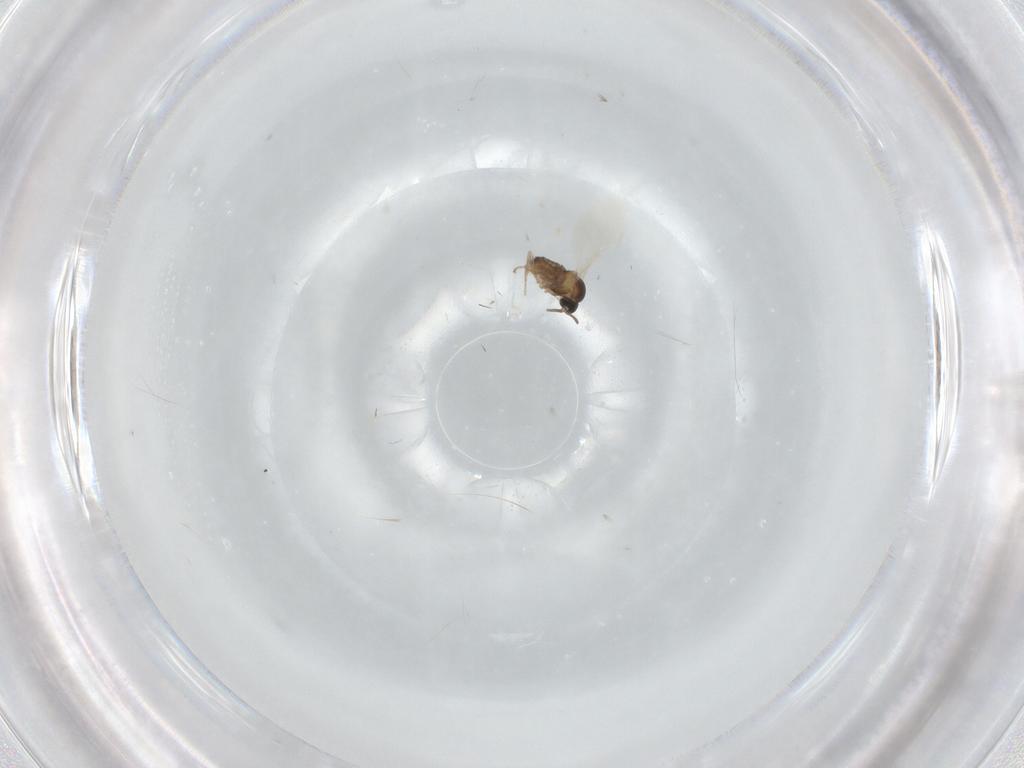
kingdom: Animalia
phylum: Arthropoda
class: Insecta
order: Diptera
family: Cecidomyiidae
